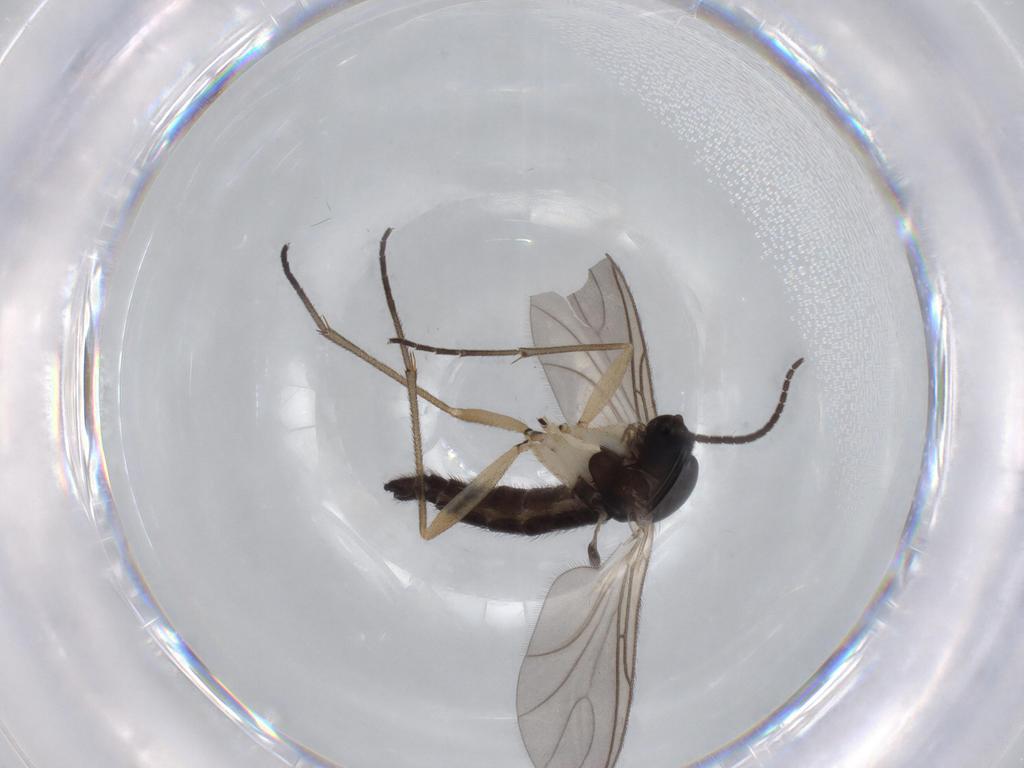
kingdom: Animalia
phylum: Arthropoda
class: Insecta
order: Diptera
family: Sciaridae
